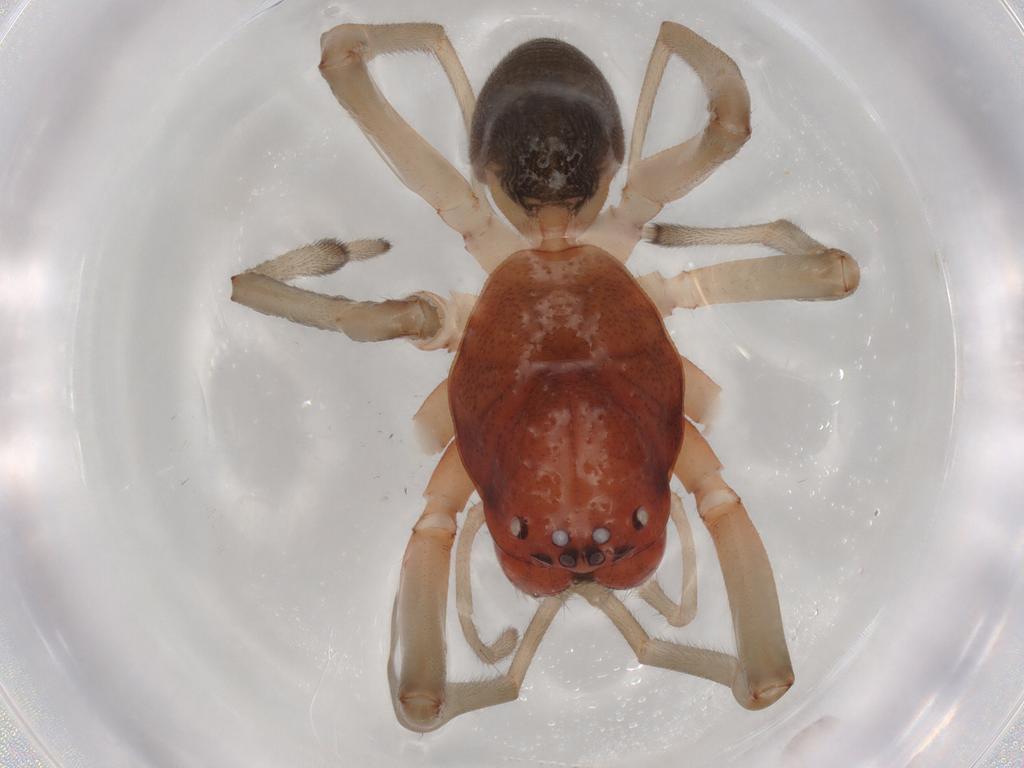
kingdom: Animalia
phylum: Arthropoda
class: Arachnida
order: Araneae
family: Trachelidae
